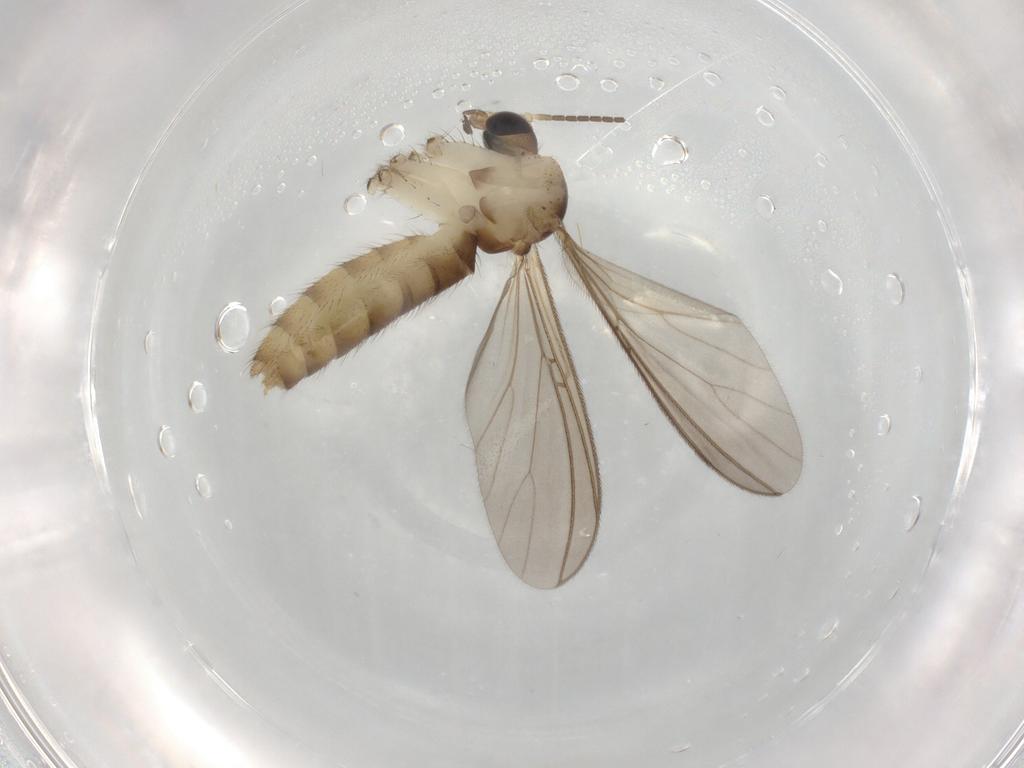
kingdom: Animalia
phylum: Arthropoda
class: Insecta
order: Diptera
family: Mycetophilidae
